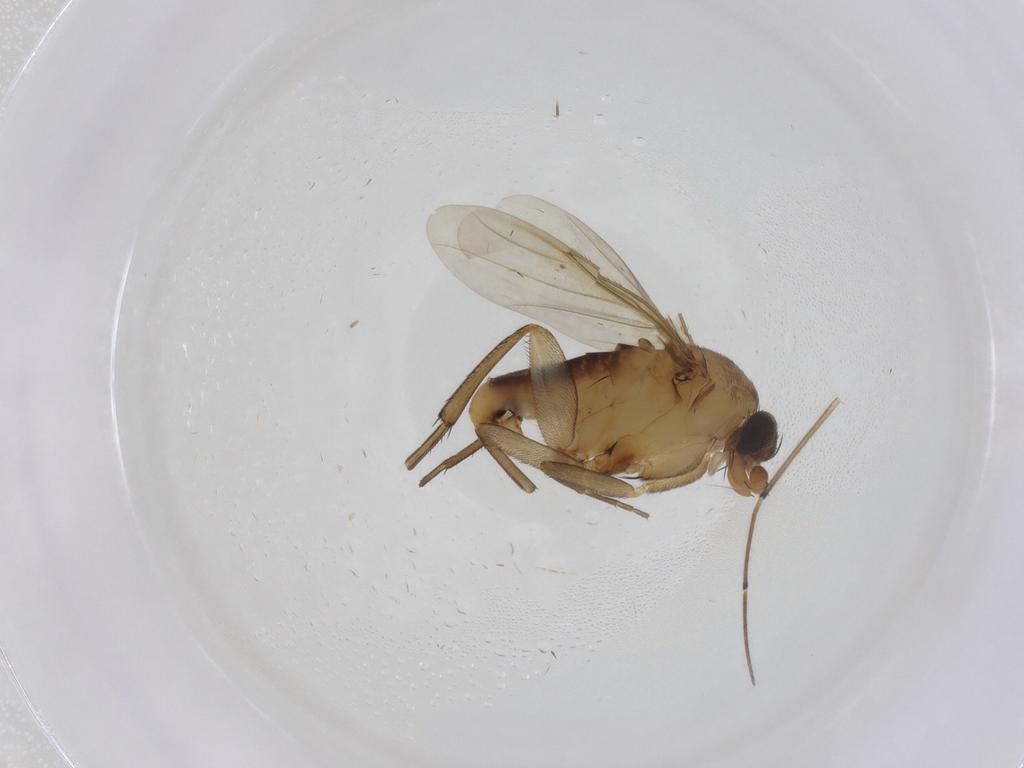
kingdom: Animalia
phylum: Arthropoda
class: Insecta
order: Diptera
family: Phoridae
